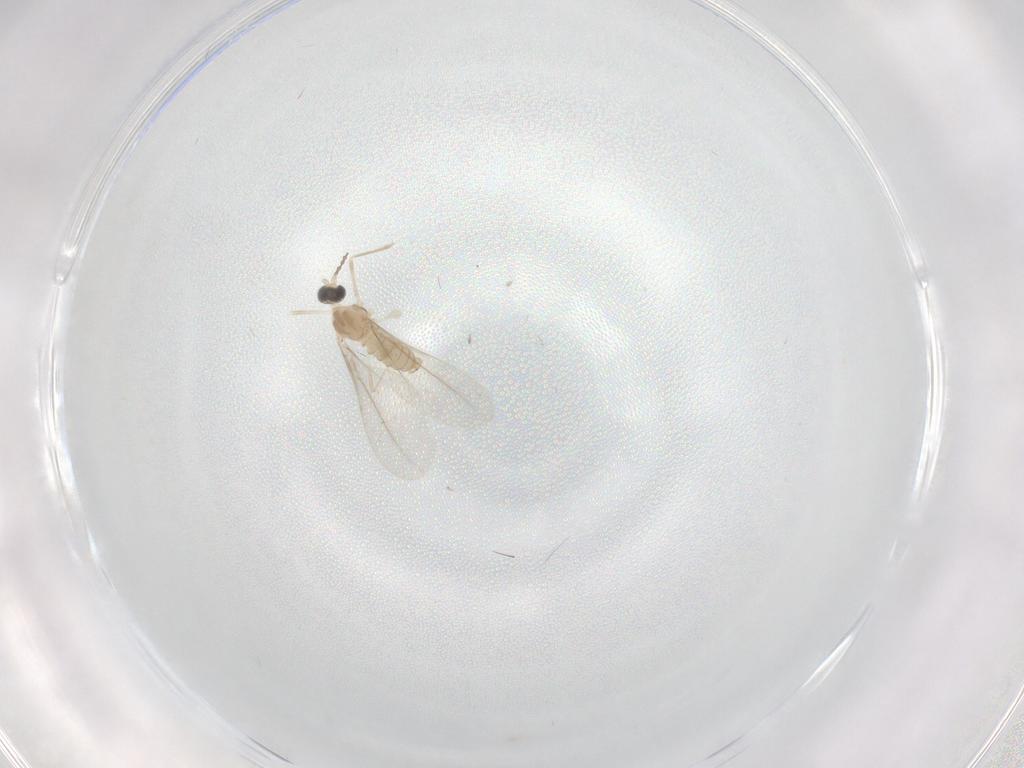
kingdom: Animalia
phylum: Arthropoda
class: Insecta
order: Diptera
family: Cecidomyiidae
